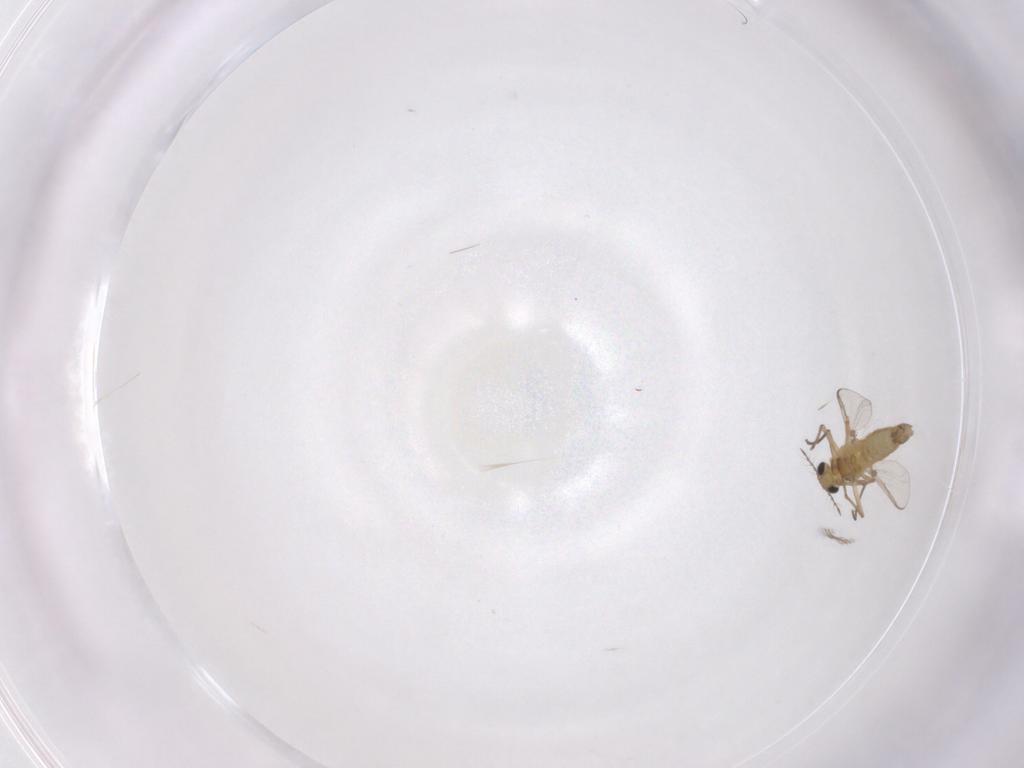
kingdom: Animalia
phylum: Arthropoda
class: Insecta
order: Diptera
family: Chironomidae
